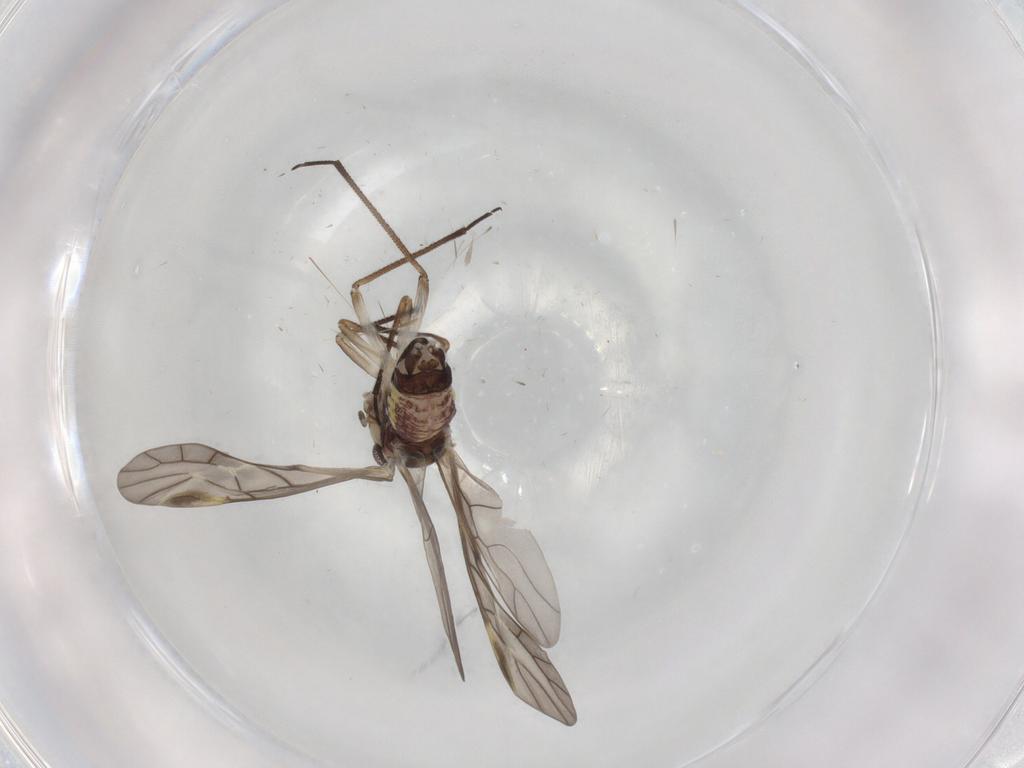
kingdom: Animalia
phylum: Arthropoda
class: Insecta
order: Psocodea
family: Psocidae
